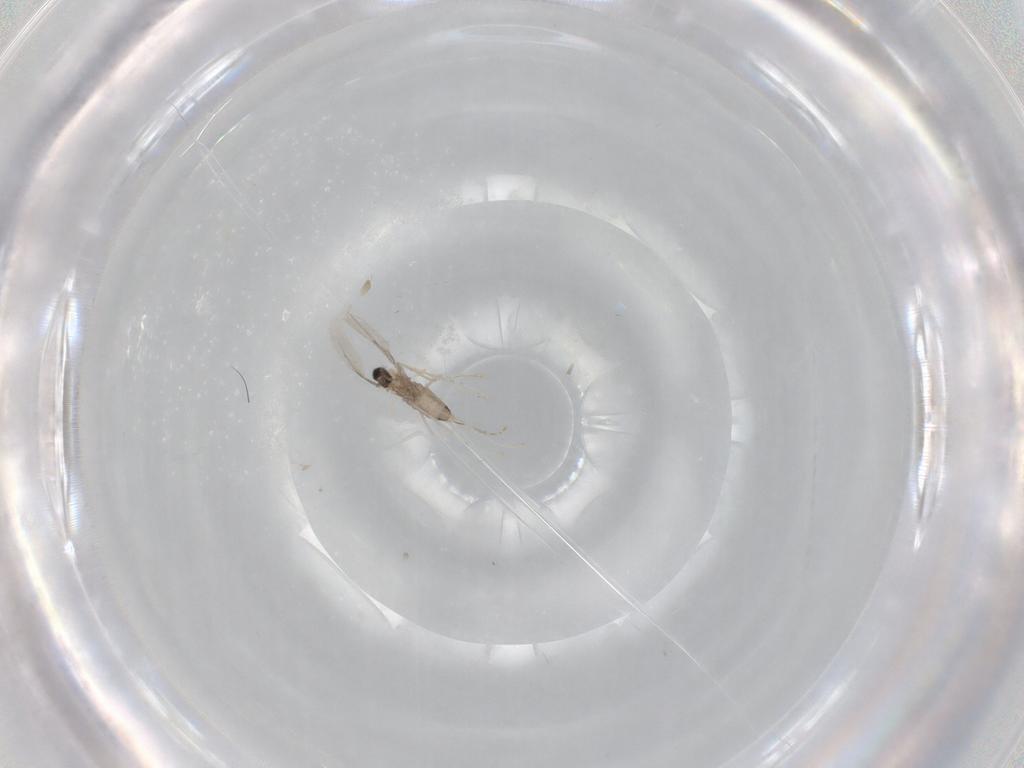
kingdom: Animalia
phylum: Arthropoda
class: Insecta
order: Diptera
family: Cecidomyiidae
